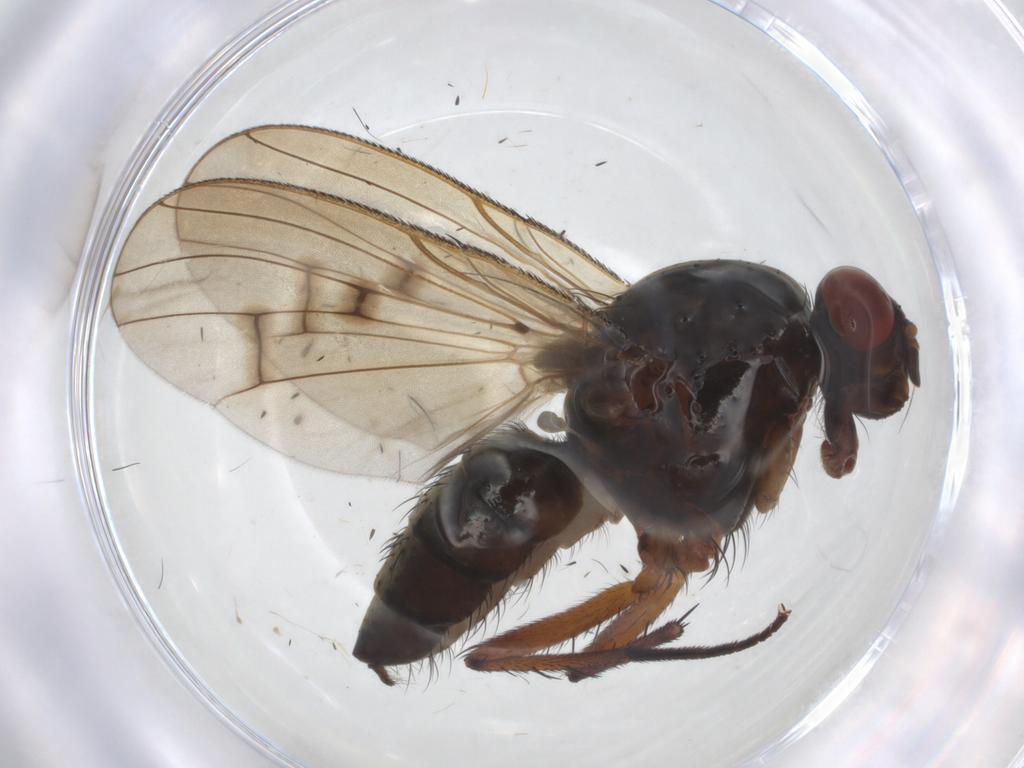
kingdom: Animalia
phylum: Arthropoda
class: Insecta
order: Diptera
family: Anthomyiidae
